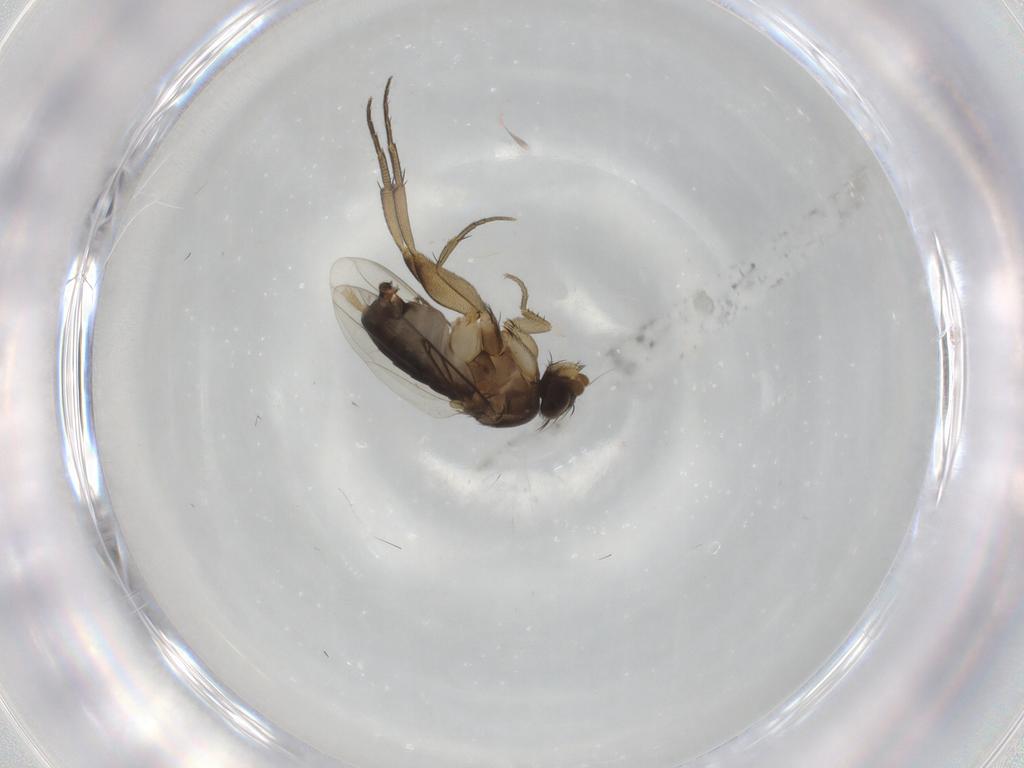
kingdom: Animalia
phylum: Arthropoda
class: Insecta
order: Diptera
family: Phoridae
